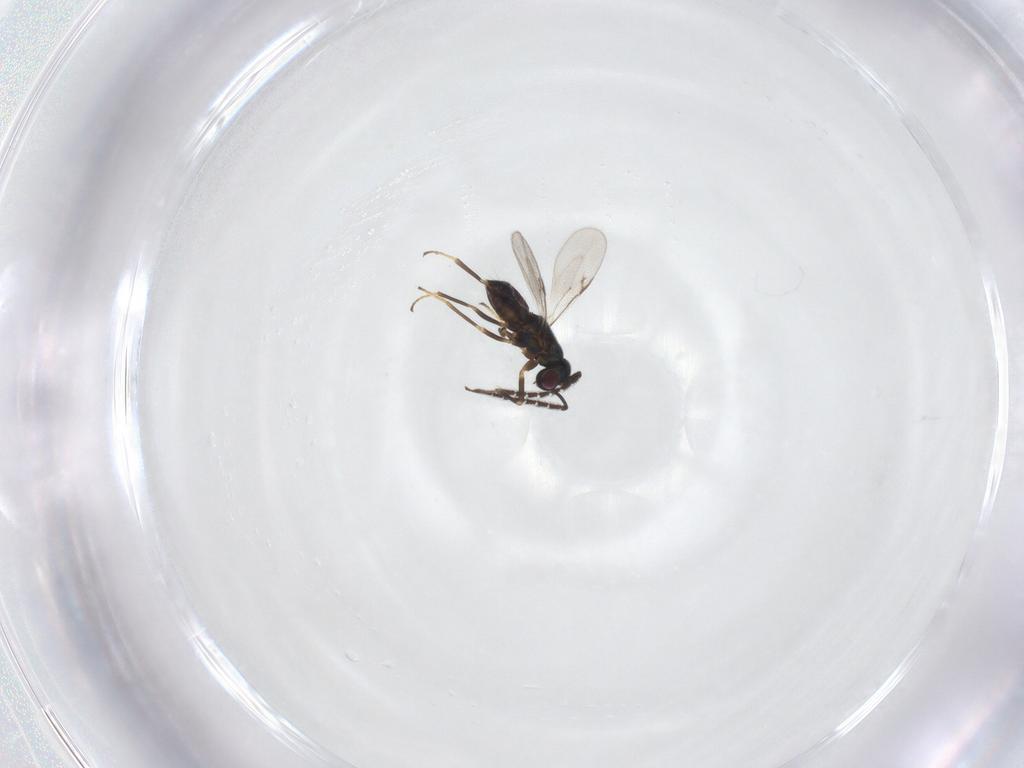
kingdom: Animalia
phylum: Arthropoda
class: Insecta
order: Hymenoptera
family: Encyrtidae
